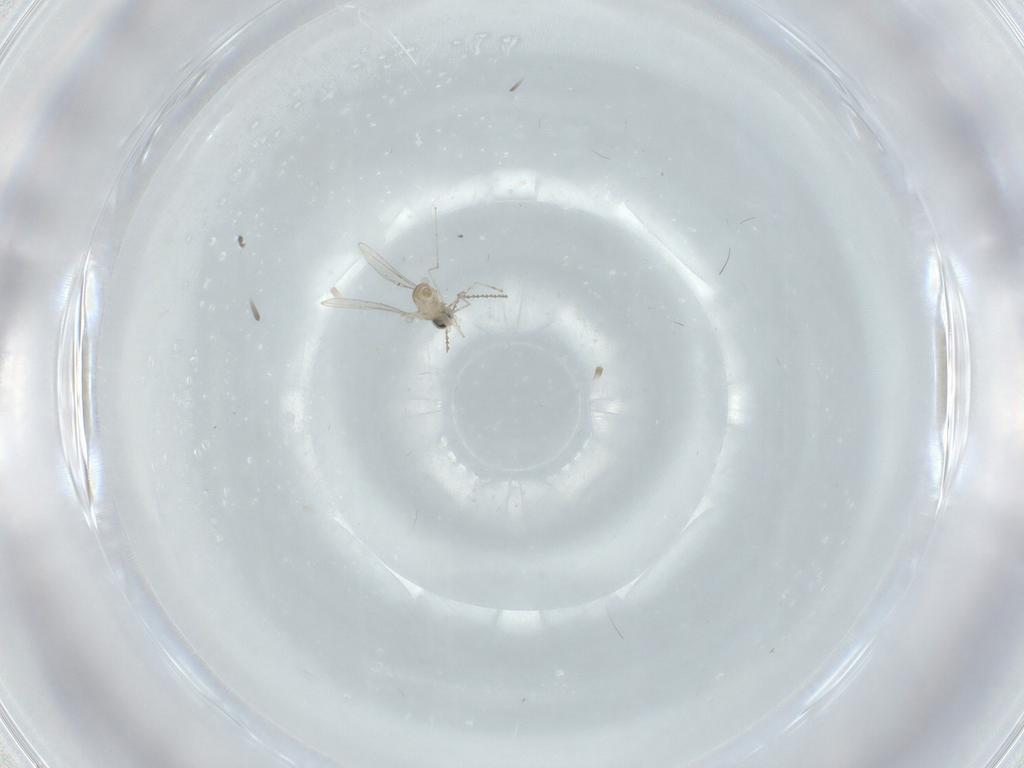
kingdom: Animalia
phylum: Arthropoda
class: Insecta
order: Diptera
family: Cecidomyiidae
